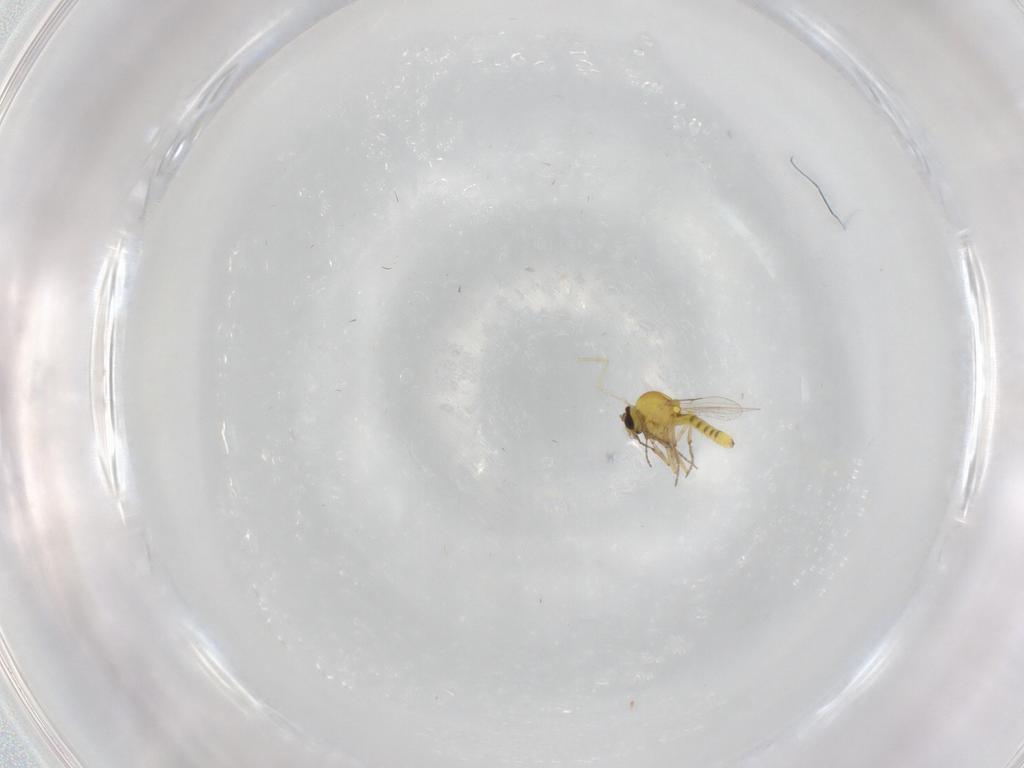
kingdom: Animalia
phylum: Arthropoda
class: Insecta
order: Diptera
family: Ceratopogonidae
